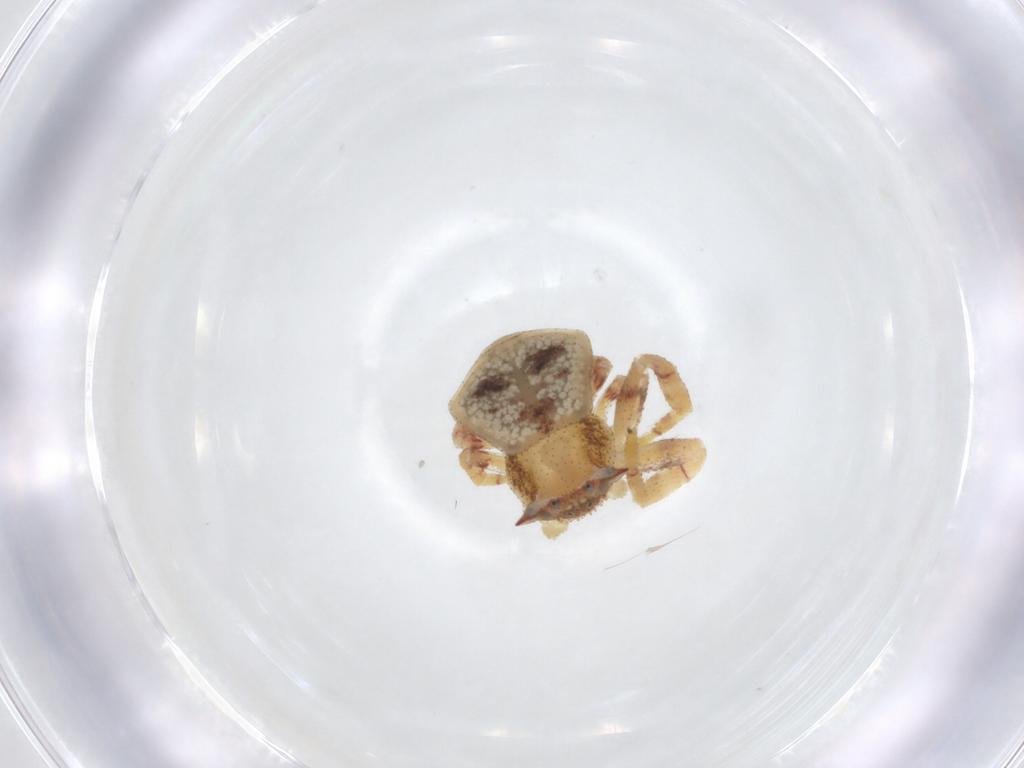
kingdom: Animalia
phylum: Arthropoda
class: Arachnida
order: Araneae
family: Thomisidae
